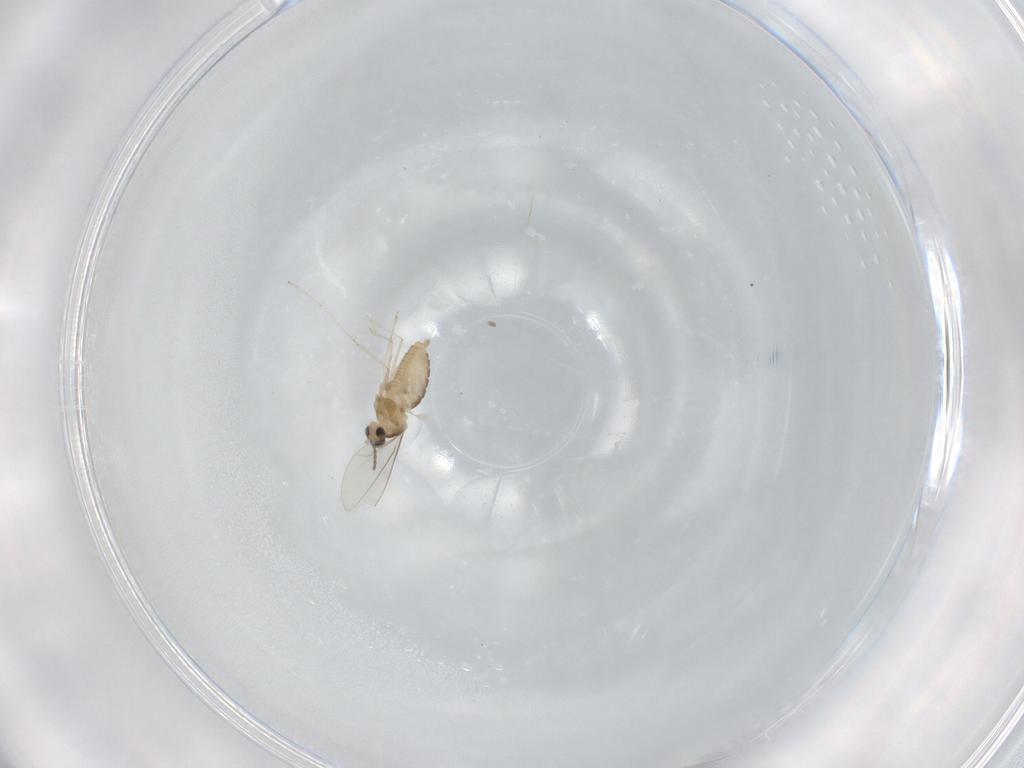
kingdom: Animalia
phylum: Arthropoda
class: Insecta
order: Diptera
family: Cecidomyiidae
